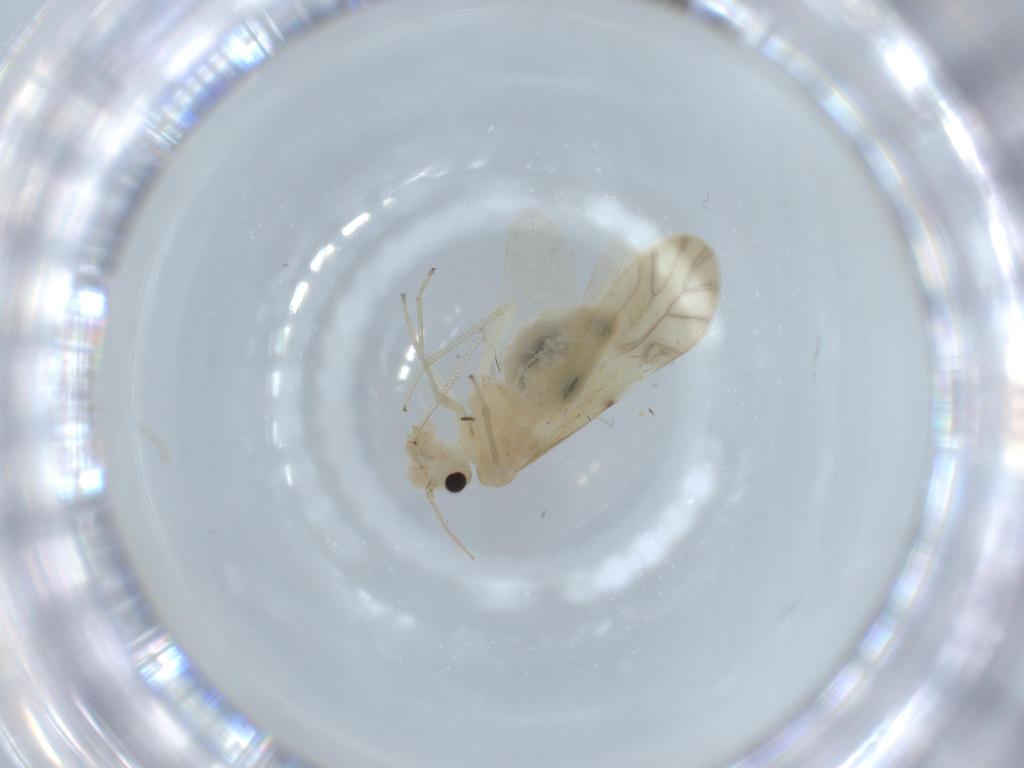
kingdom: Animalia
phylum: Arthropoda
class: Insecta
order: Psocodea
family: Caeciliusidae
